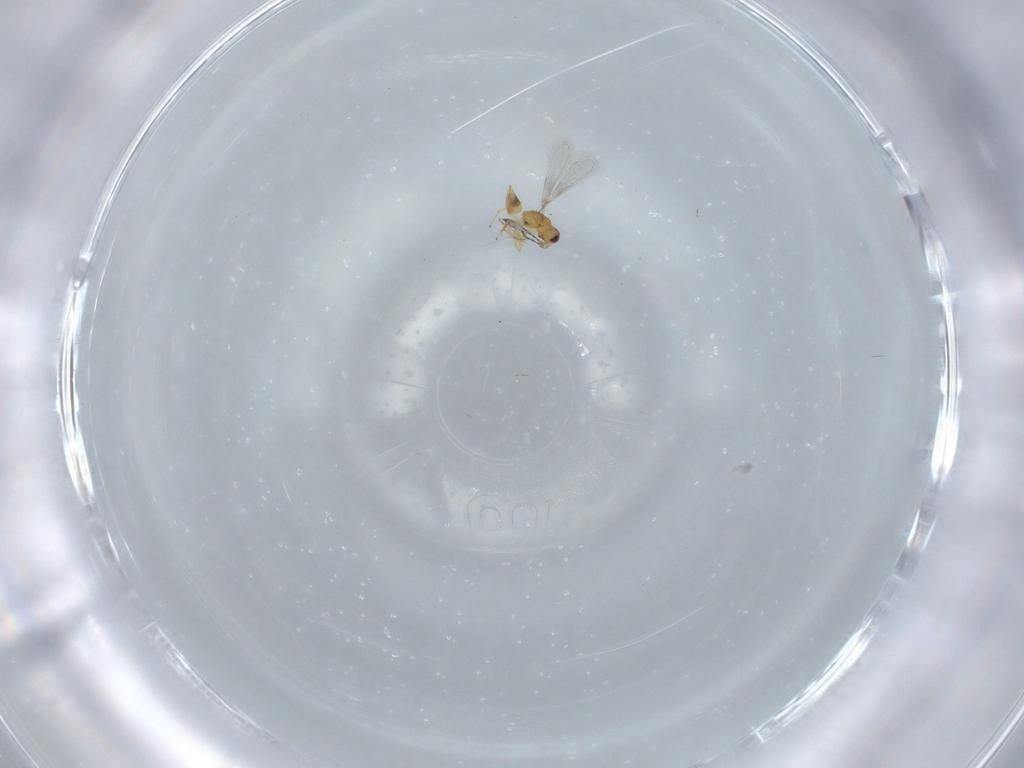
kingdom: Animalia
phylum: Arthropoda
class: Insecta
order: Hymenoptera
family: Mymaridae
